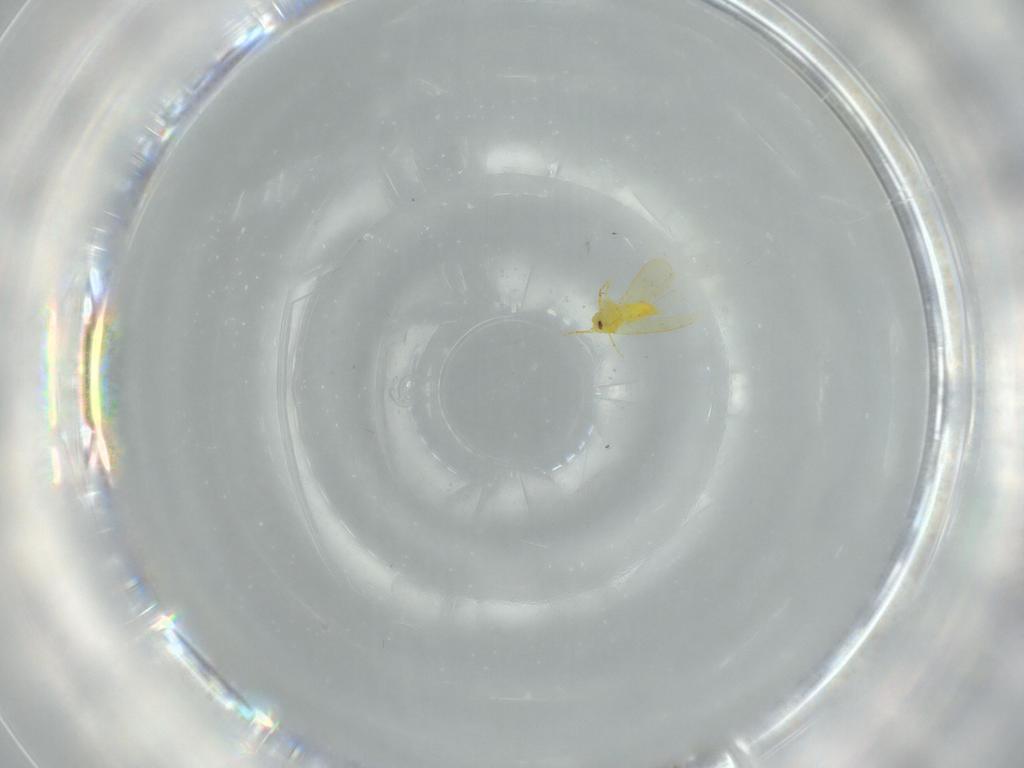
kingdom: Animalia
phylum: Arthropoda
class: Insecta
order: Hemiptera
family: Aleyrodidae
